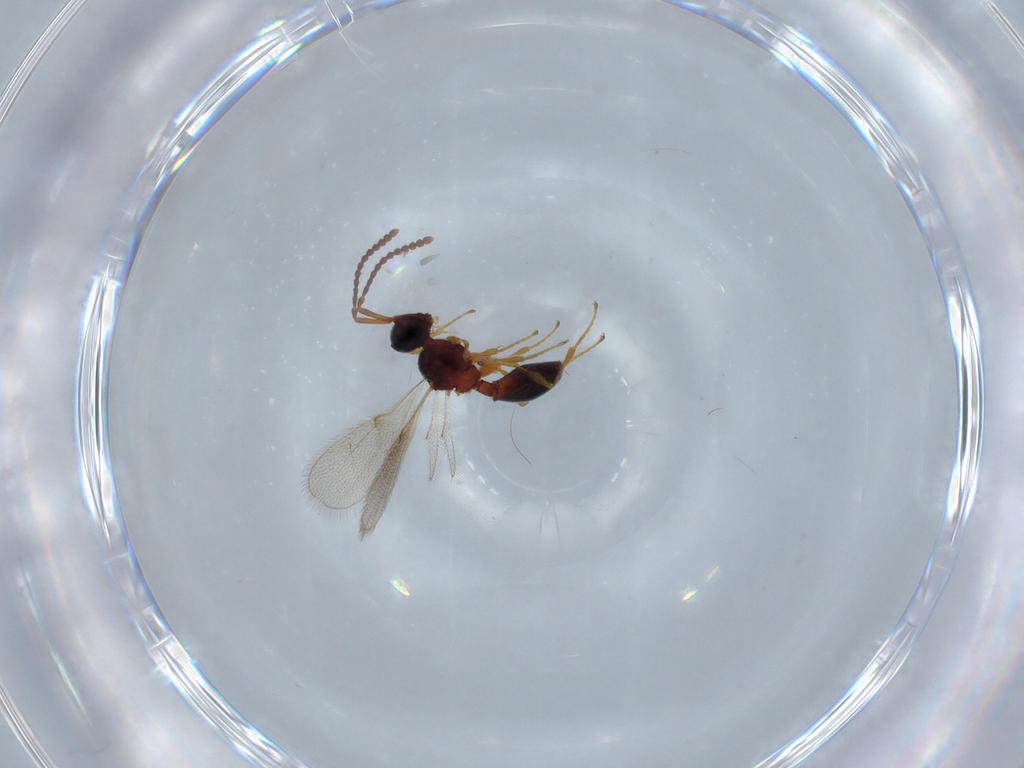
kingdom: Animalia
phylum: Arthropoda
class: Insecta
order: Hymenoptera
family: Diapriidae
